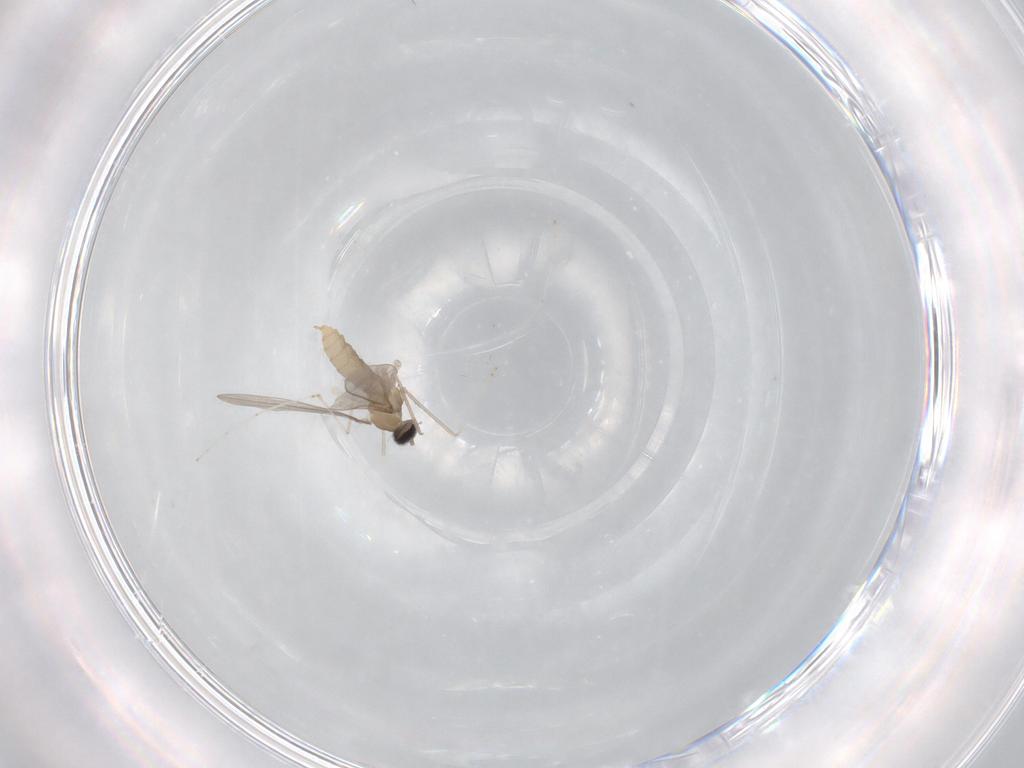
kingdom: Animalia
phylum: Arthropoda
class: Insecta
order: Diptera
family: Cecidomyiidae
